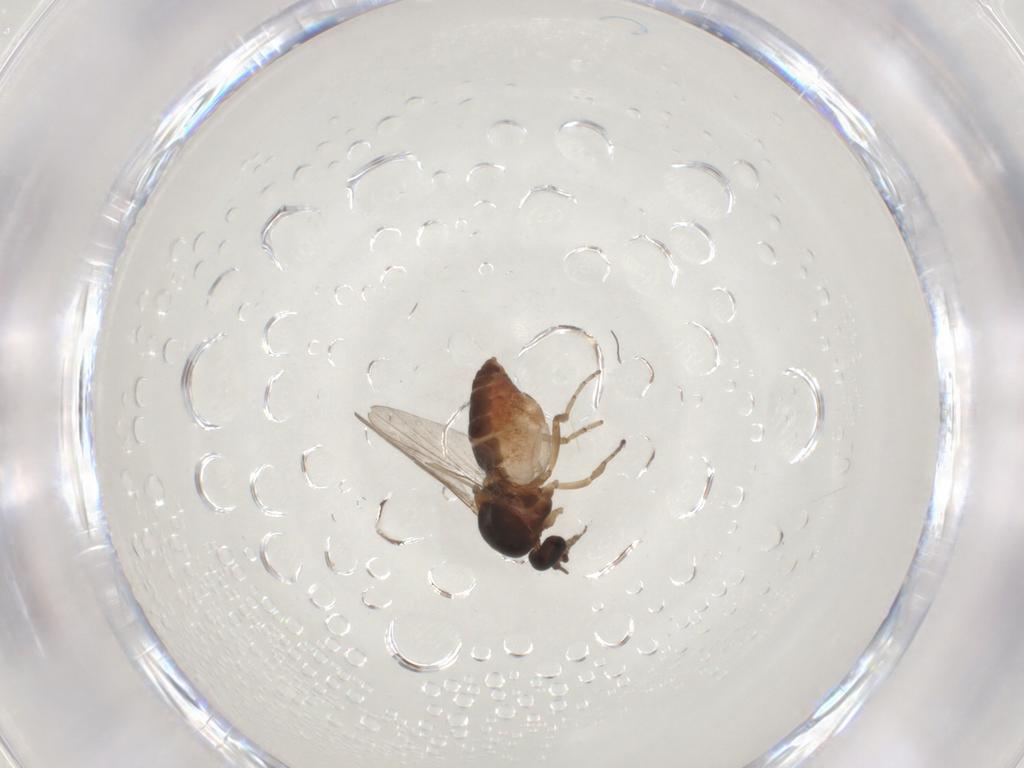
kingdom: Animalia
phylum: Arthropoda
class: Insecta
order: Diptera
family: Ceratopogonidae
